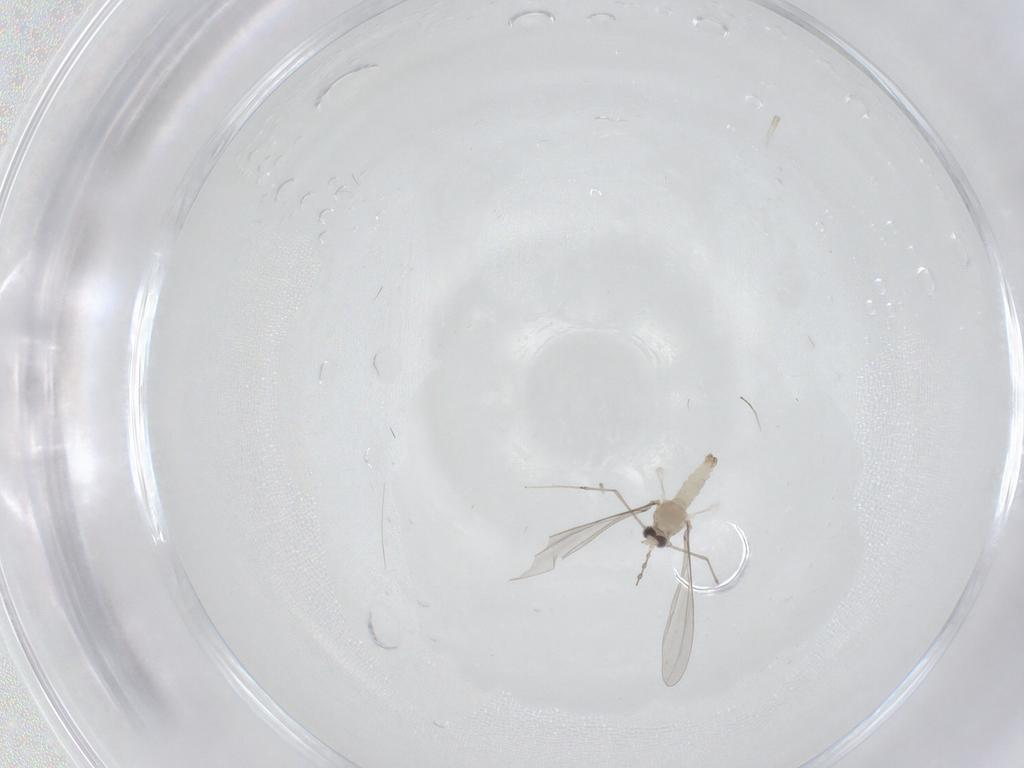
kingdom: Animalia
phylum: Arthropoda
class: Insecta
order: Diptera
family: Cecidomyiidae
